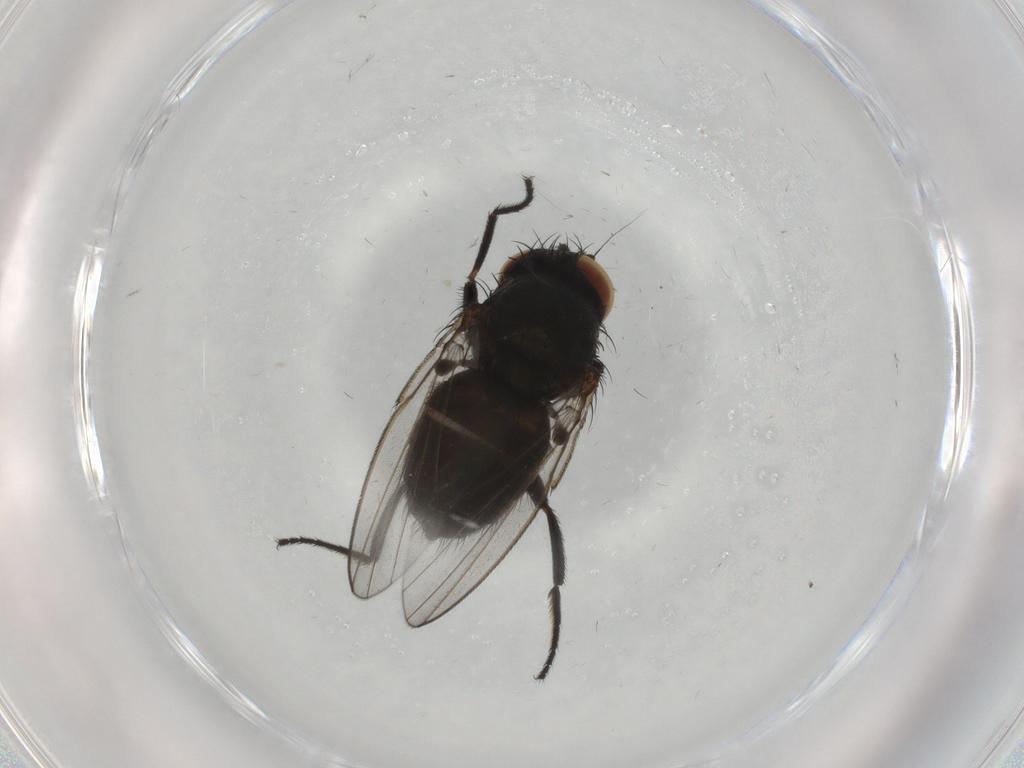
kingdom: Animalia
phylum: Arthropoda
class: Insecta
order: Diptera
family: Milichiidae
